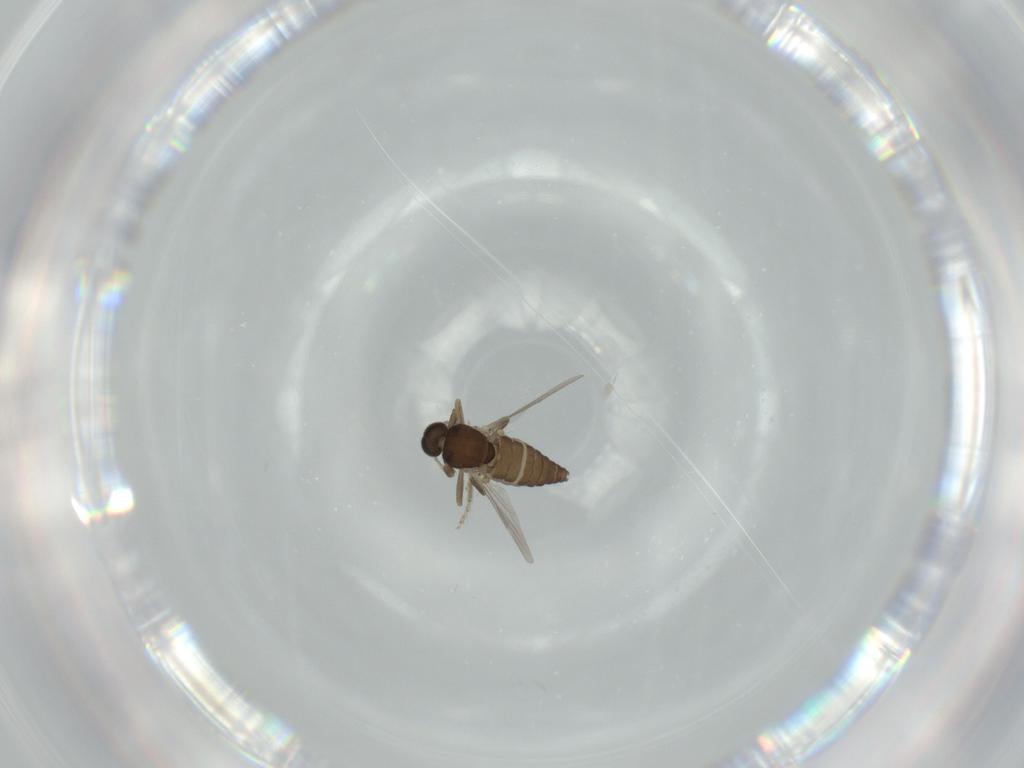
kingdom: Animalia
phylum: Arthropoda
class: Insecta
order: Diptera
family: Ceratopogonidae
